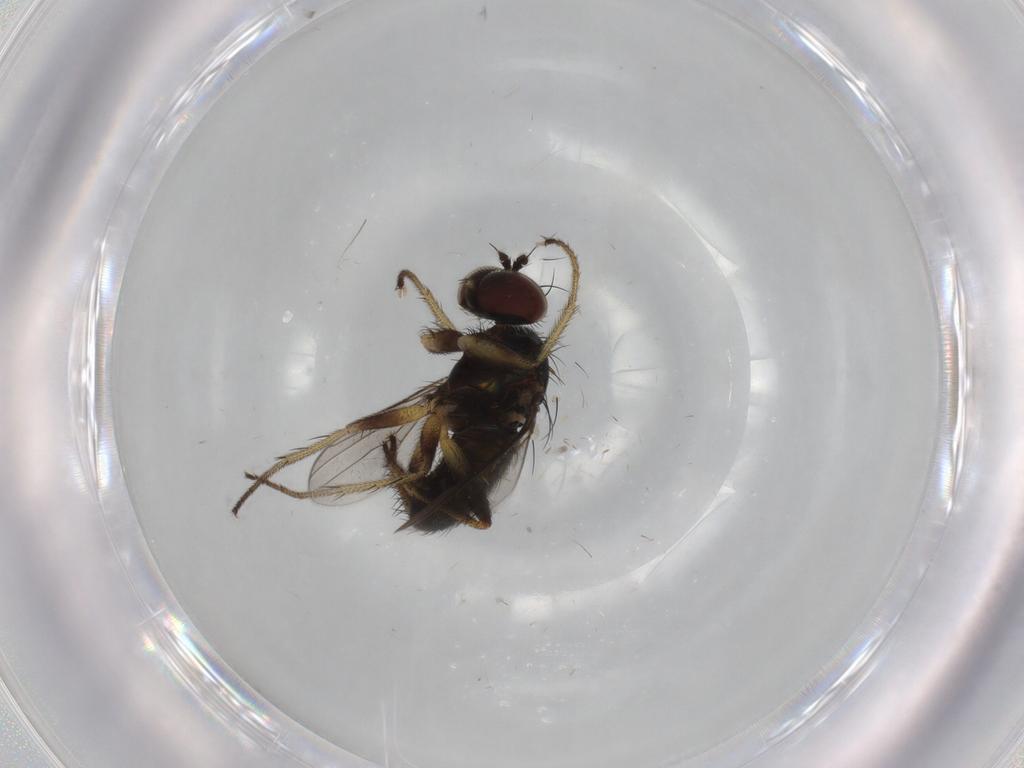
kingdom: Animalia
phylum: Arthropoda
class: Insecta
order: Diptera
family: Dolichopodidae
